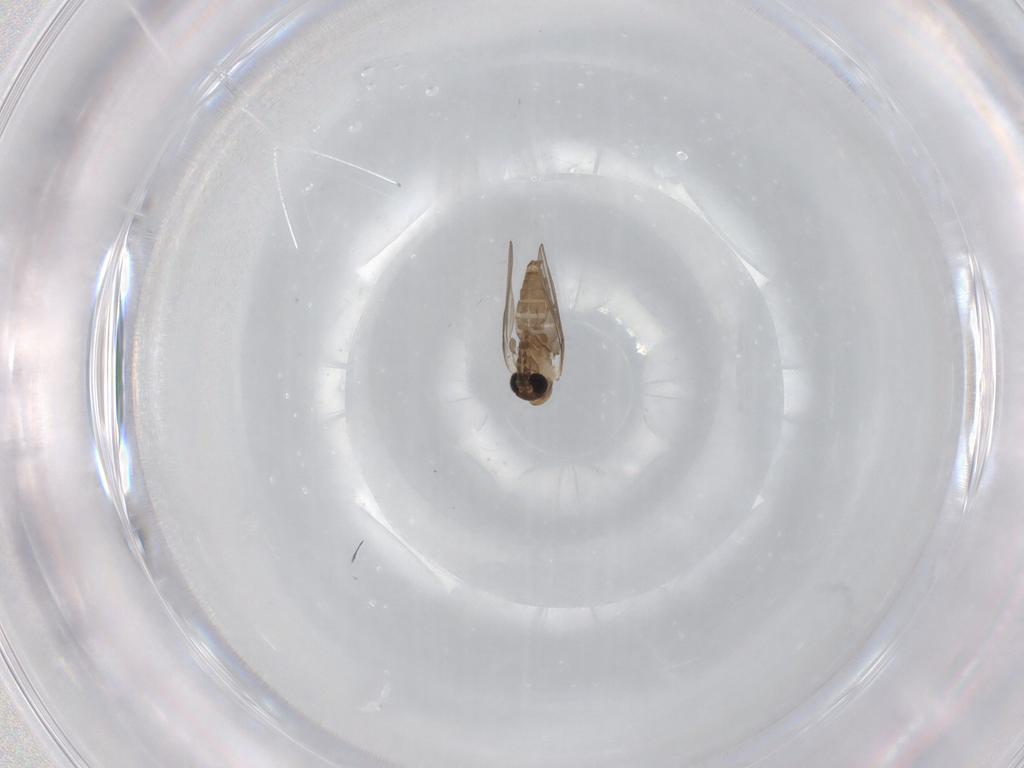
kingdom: Animalia
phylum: Arthropoda
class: Insecta
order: Diptera
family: Psychodidae
